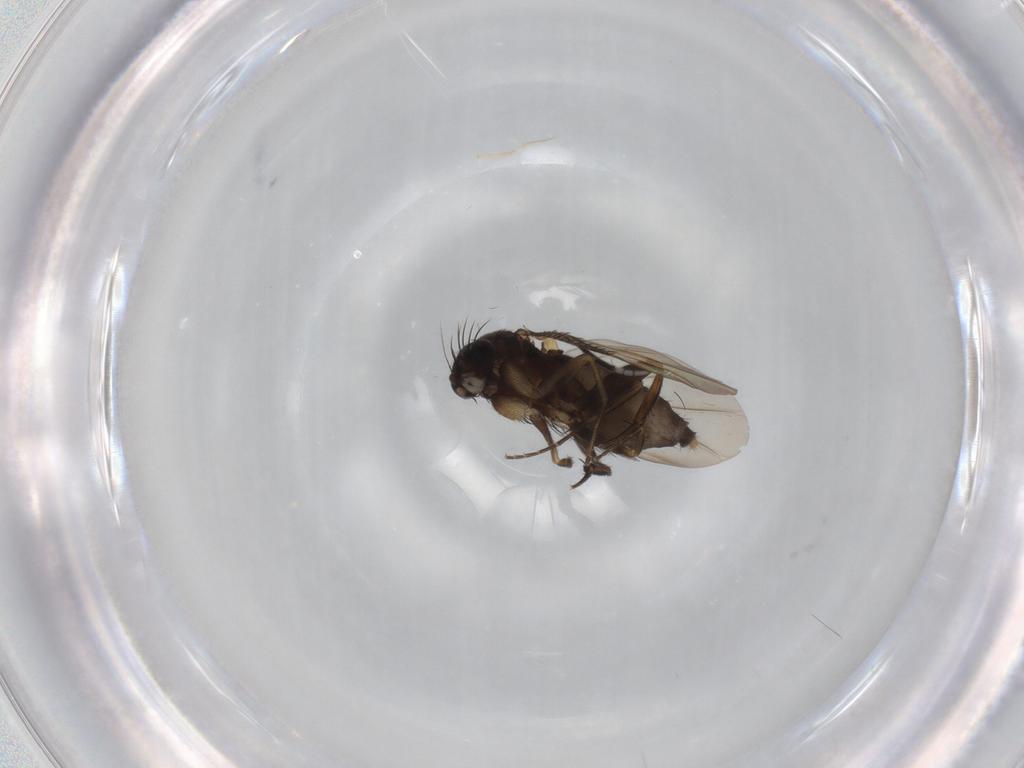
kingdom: Animalia
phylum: Arthropoda
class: Insecta
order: Diptera
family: Phoridae
